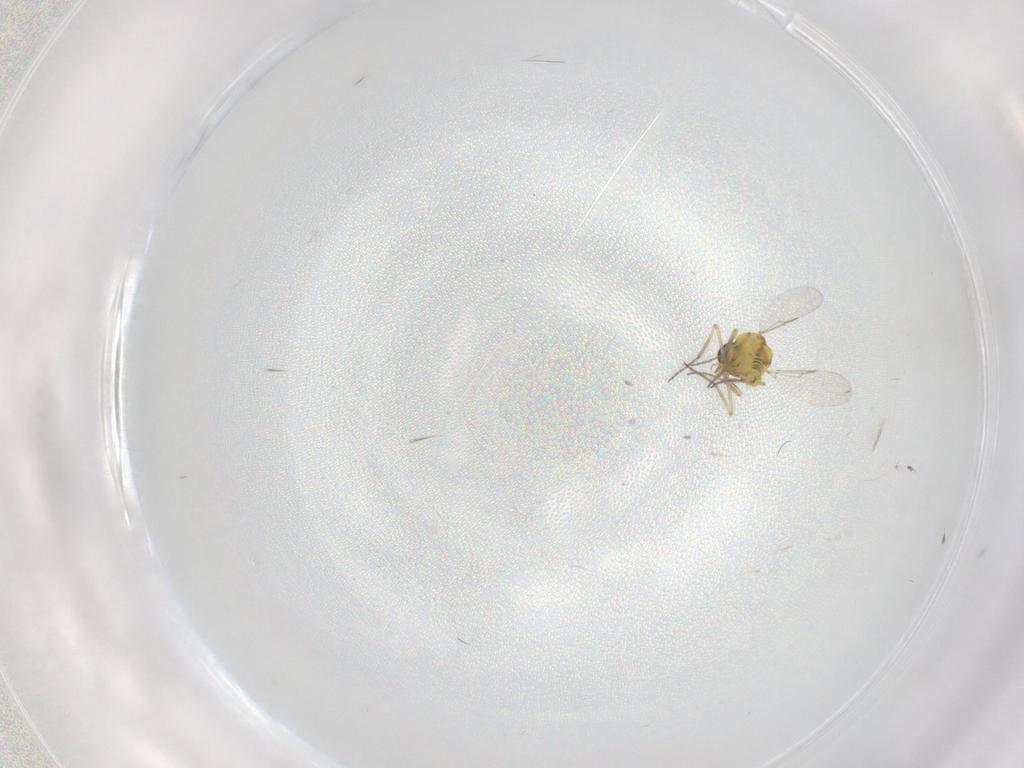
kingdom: Animalia
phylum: Arthropoda
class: Insecta
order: Diptera
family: Ceratopogonidae
